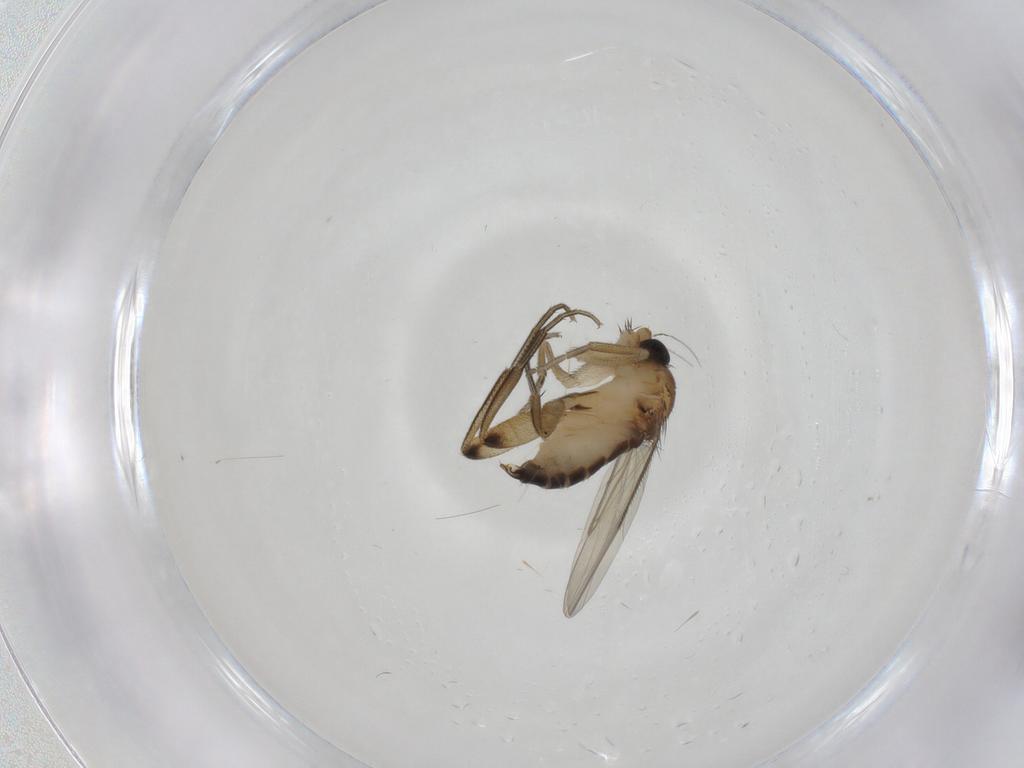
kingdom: Animalia
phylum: Arthropoda
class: Insecta
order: Diptera
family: Phoridae
